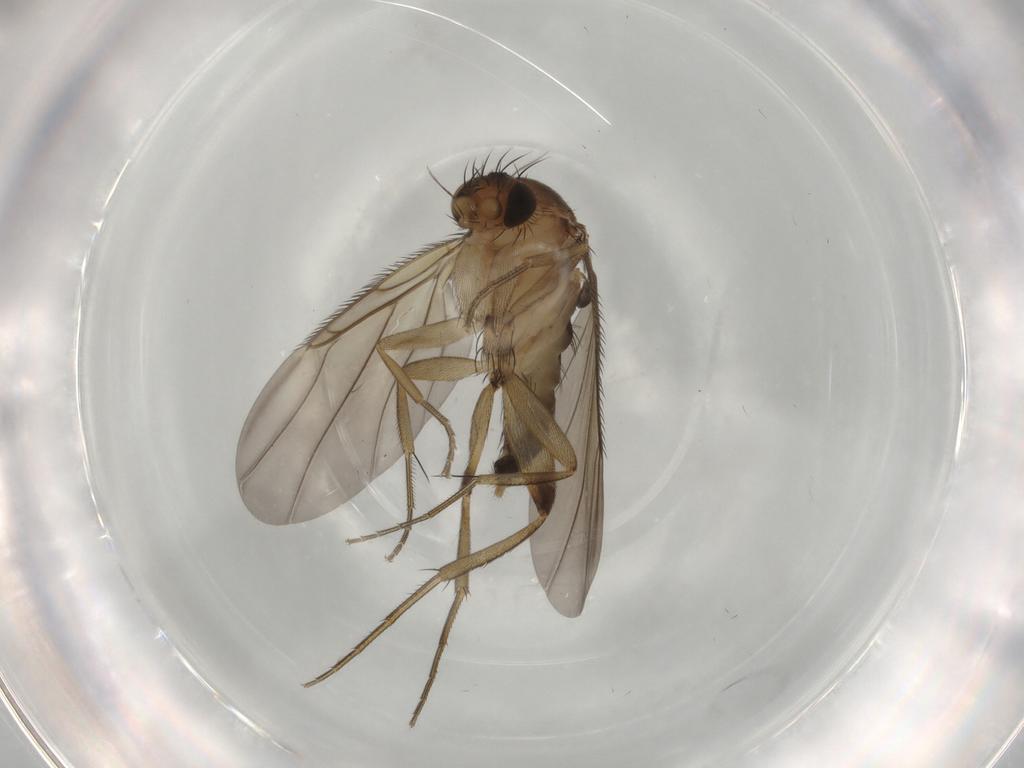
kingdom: Animalia
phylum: Arthropoda
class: Insecta
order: Diptera
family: Phoridae
